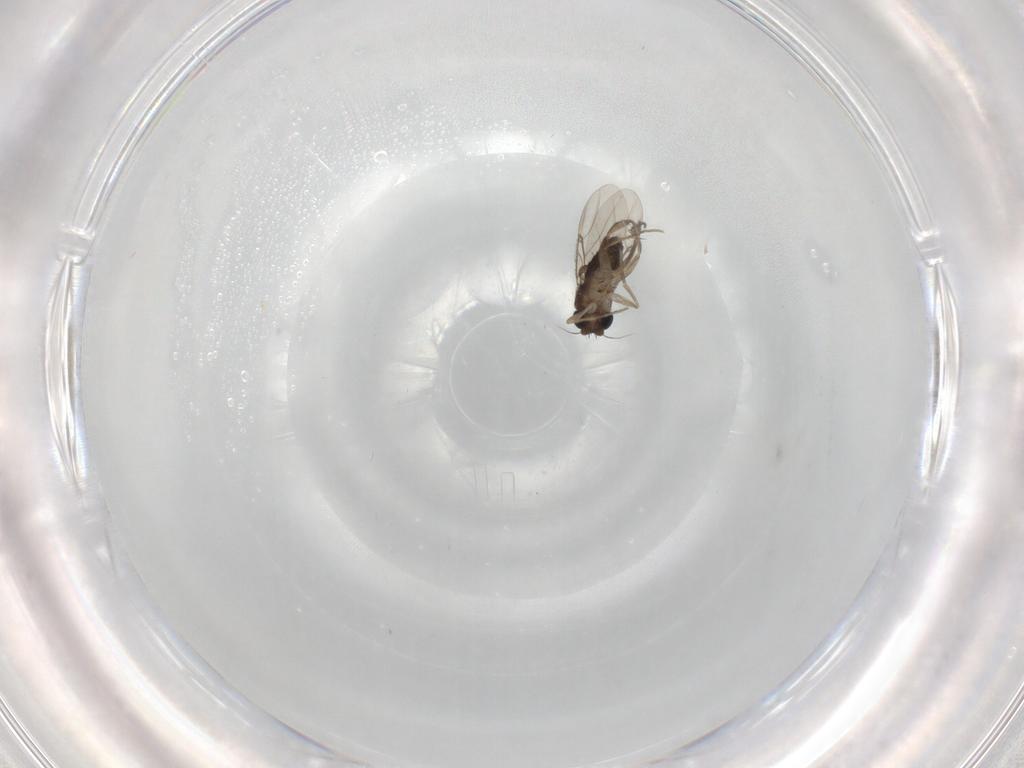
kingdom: Animalia
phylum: Arthropoda
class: Insecta
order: Diptera
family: Phoridae
